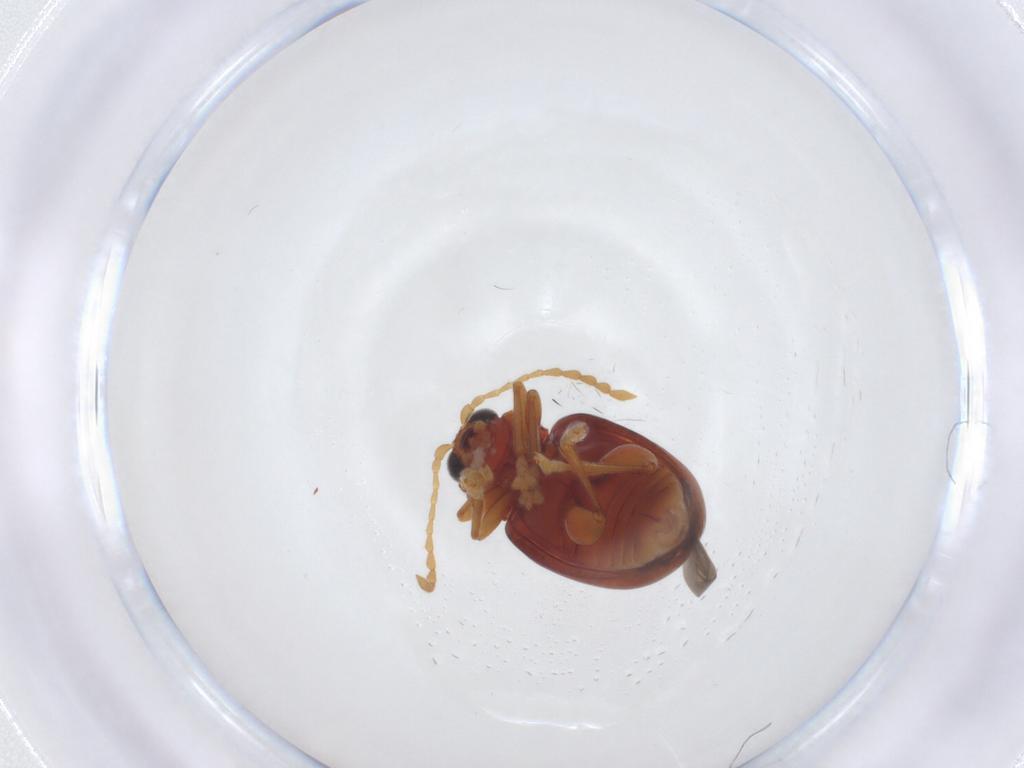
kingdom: Animalia
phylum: Arthropoda
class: Insecta
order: Coleoptera
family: Chrysomelidae
